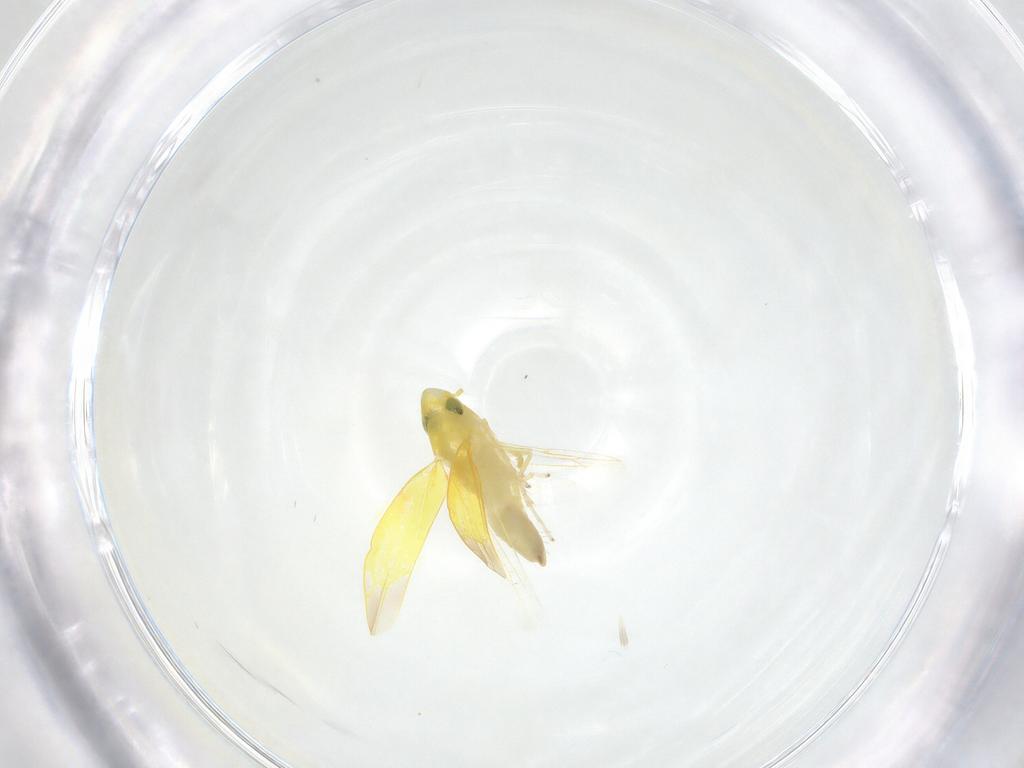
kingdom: Animalia
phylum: Arthropoda
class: Insecta
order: Hemiptera
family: Cicadellidae
